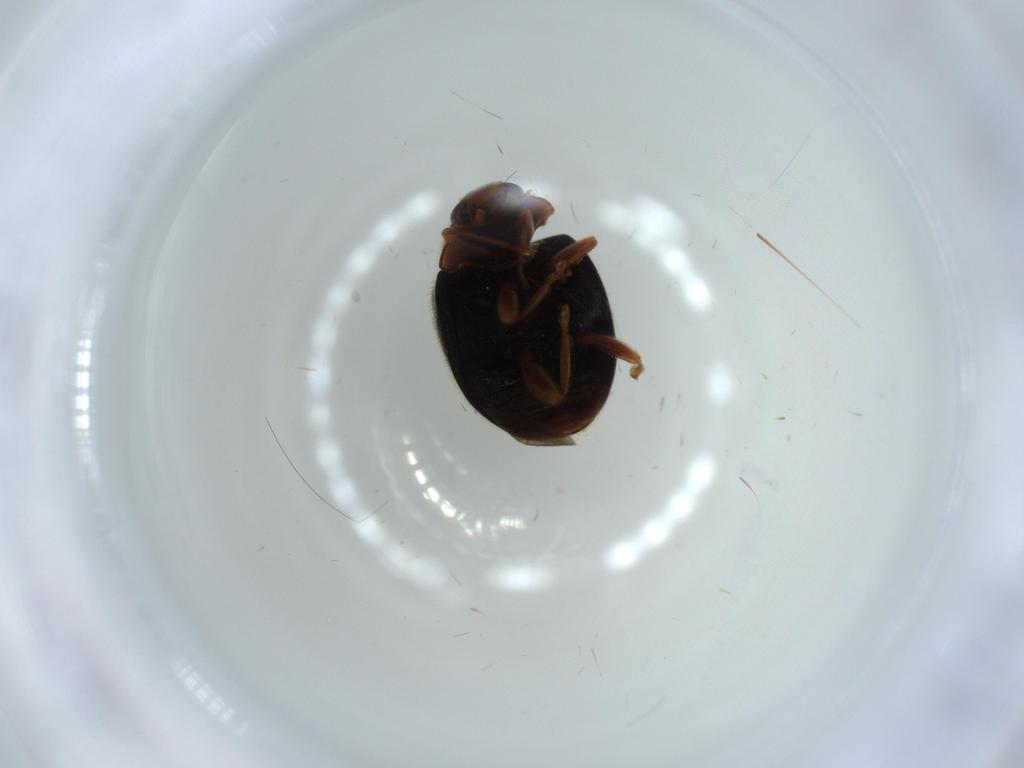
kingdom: Animalia
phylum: Arthropoda
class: Insecta
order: Coleoptera
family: Coccinellidae
